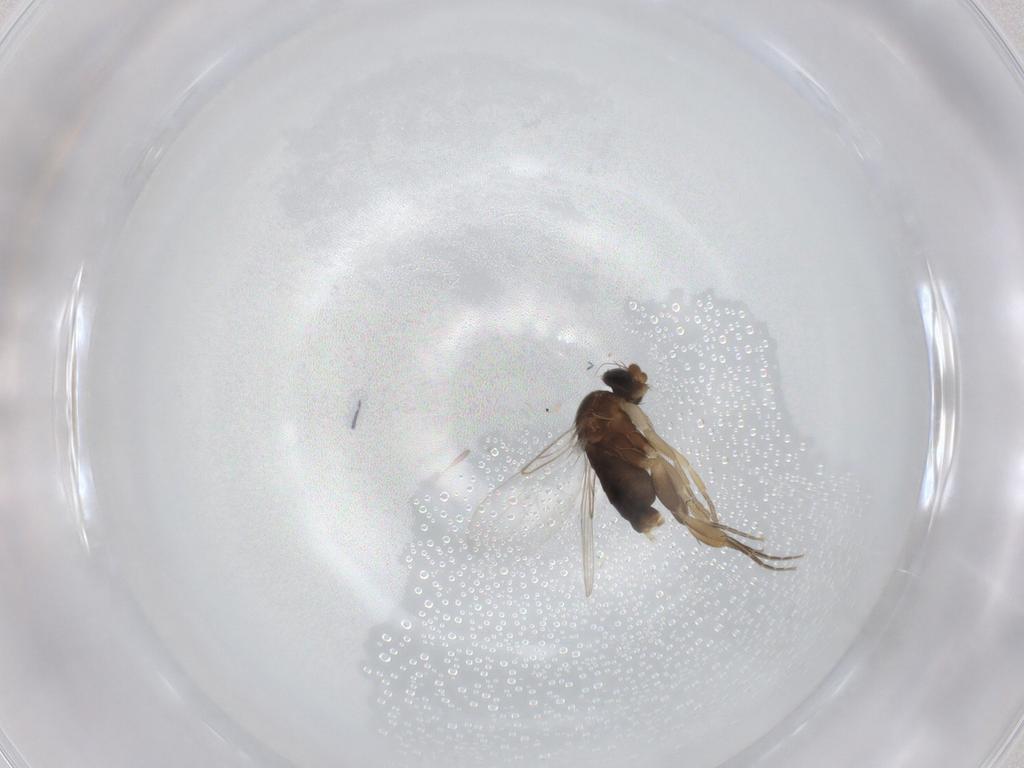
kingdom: Animalia
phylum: Arthropoda
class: Insecta
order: Diptera
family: Phoridae
